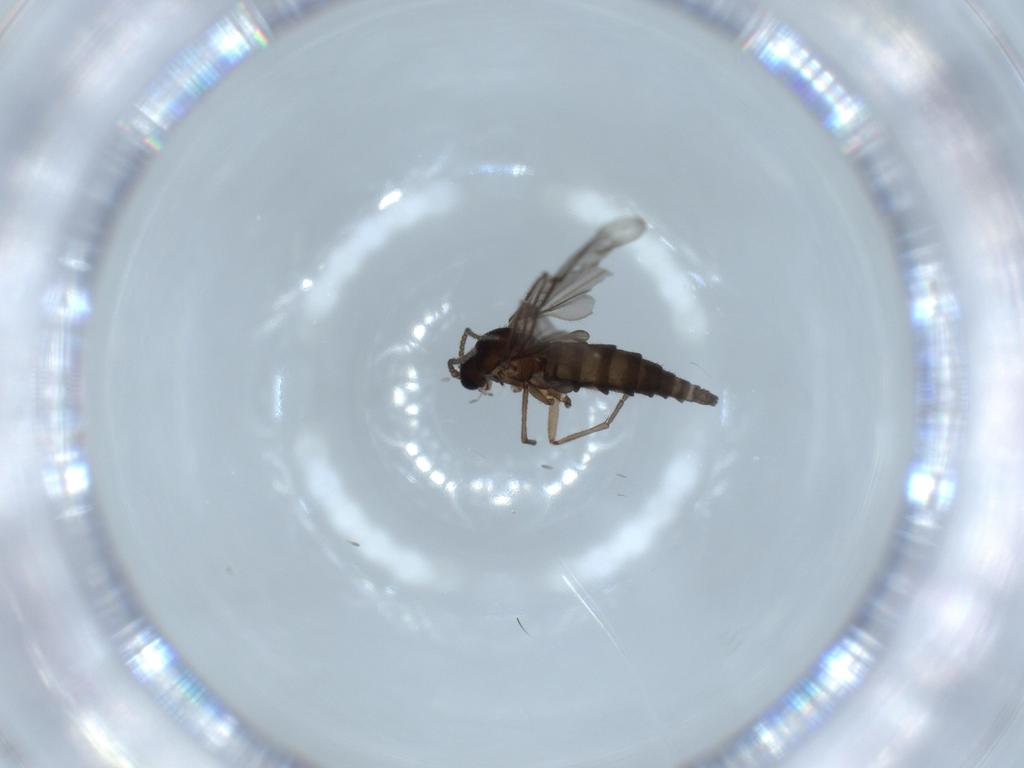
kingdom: Animalia
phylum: Arthropoda
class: Insecta
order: Diptera
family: Sciaridae
